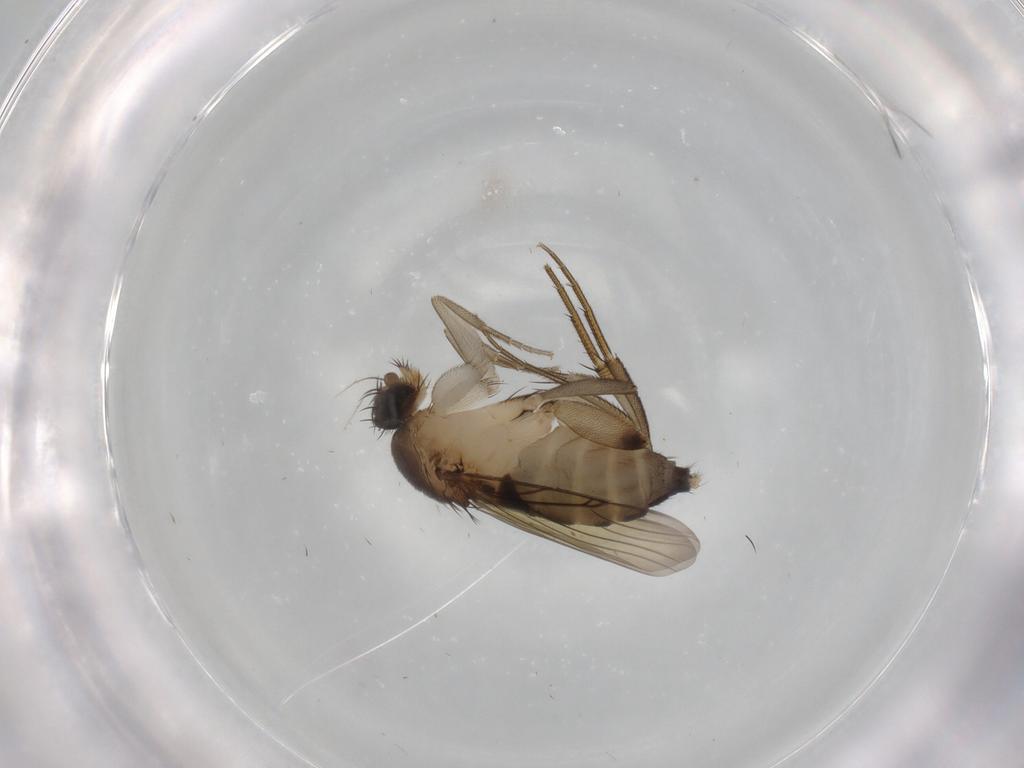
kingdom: Animalia
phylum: Arthropoda
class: Insecta
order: Diptera
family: Phoridae
